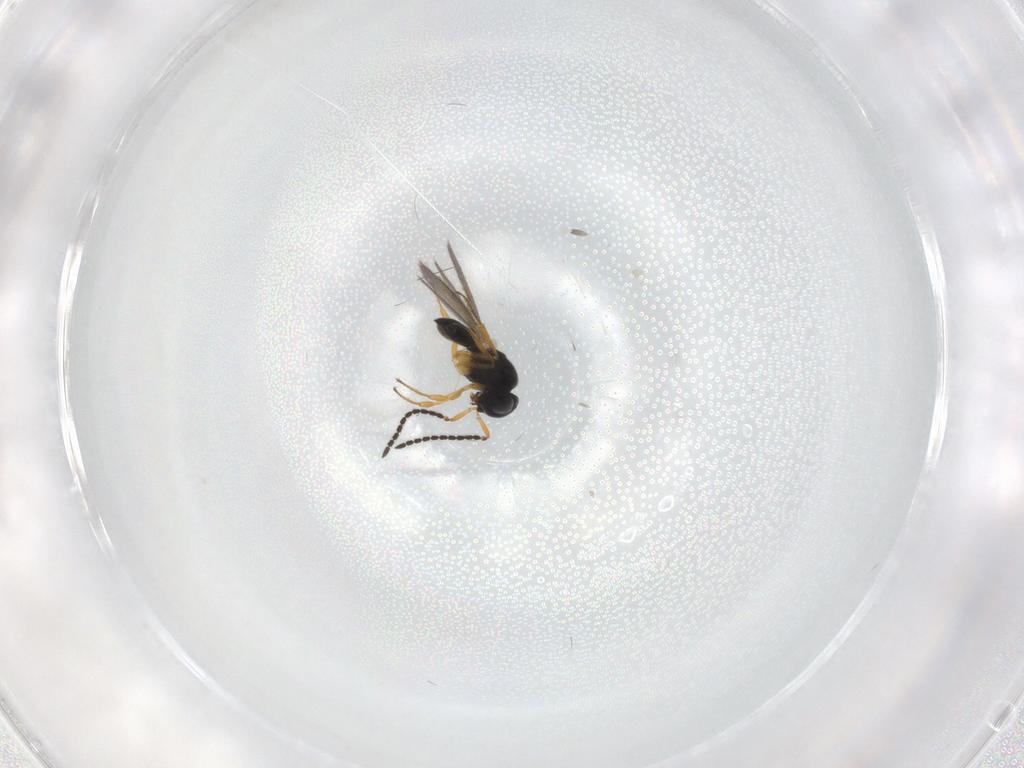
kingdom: Animalia
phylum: Arthropoda
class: Insecta
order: Hymenoptera
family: Scelionidae
